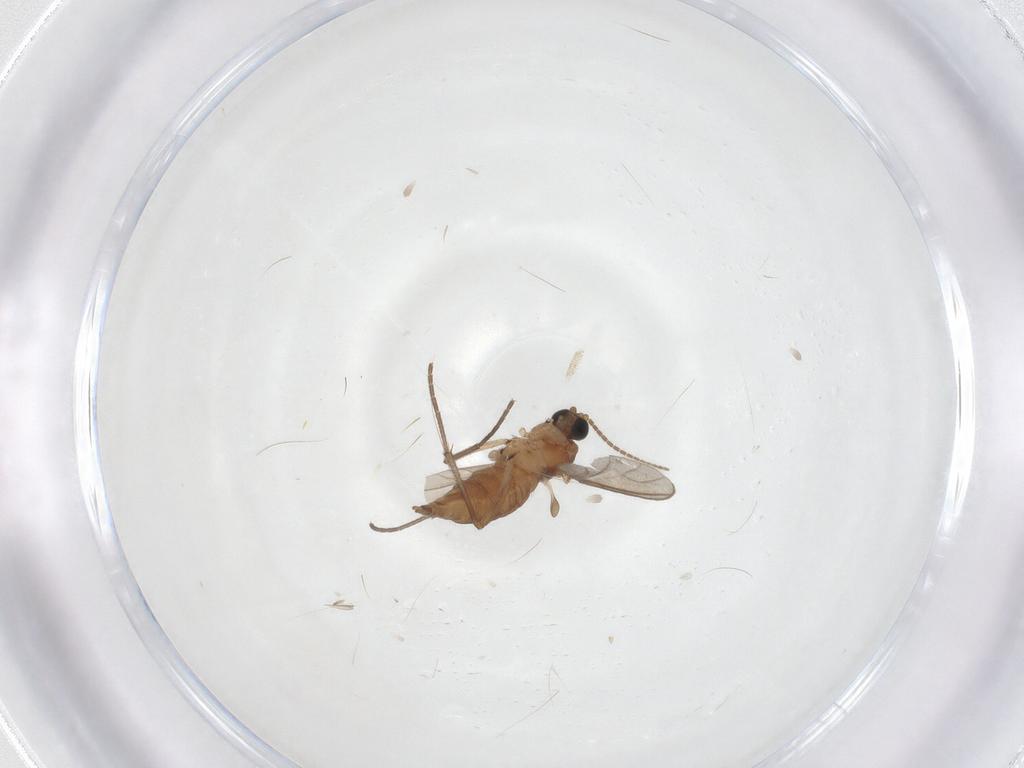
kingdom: Animalia
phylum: Arthropoda
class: Insecta
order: Diptera
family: Sciaridae
